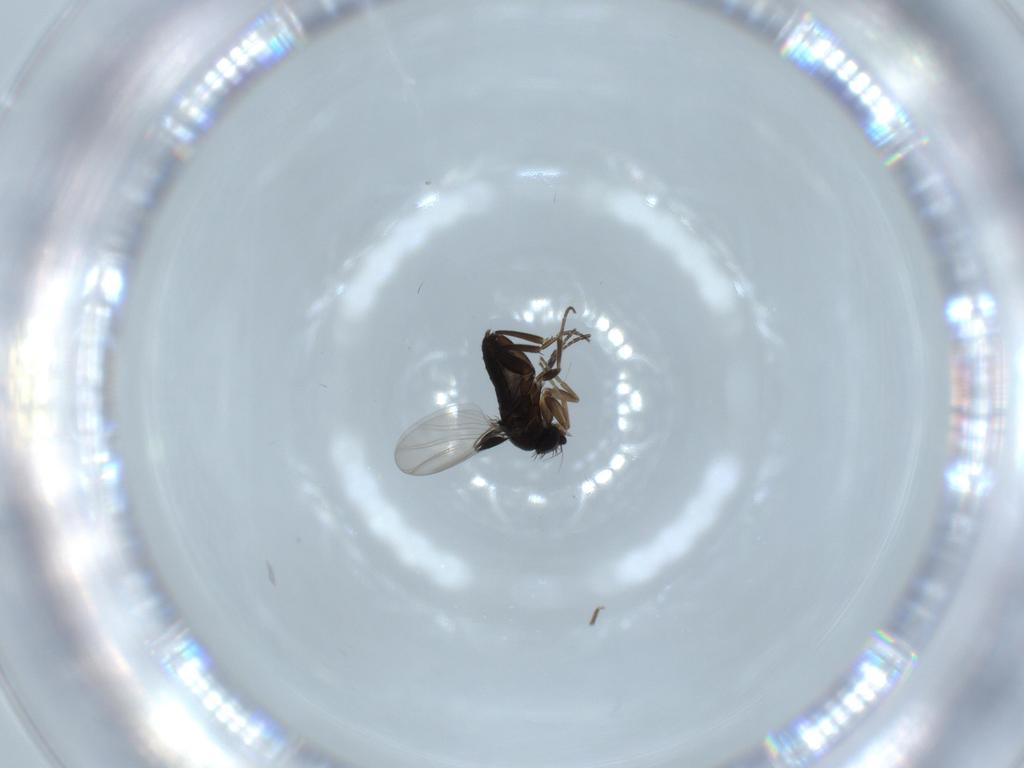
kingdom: Animalia
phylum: Arthropoda
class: Insecta
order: Diptera
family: Phoridae
